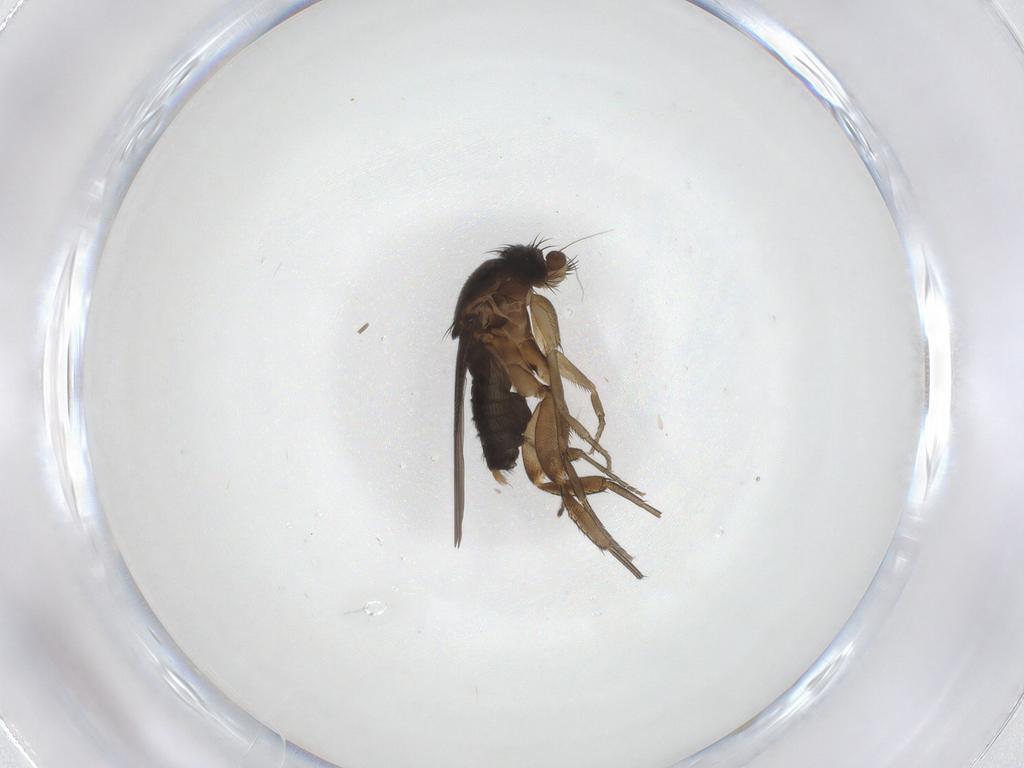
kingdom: Animalia
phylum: Arthropoda
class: Insecta
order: Diptera
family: Phoridae
